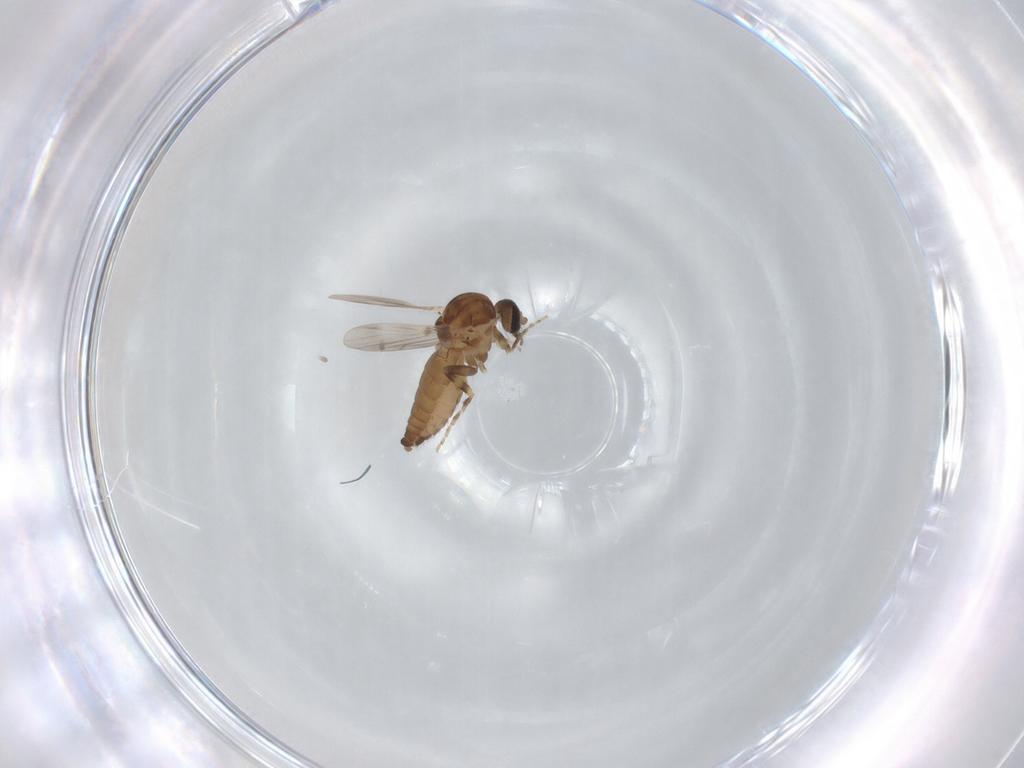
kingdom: Animalia
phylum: Arthropoda
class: Insecta
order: Diptera
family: Ceratopogonidae
